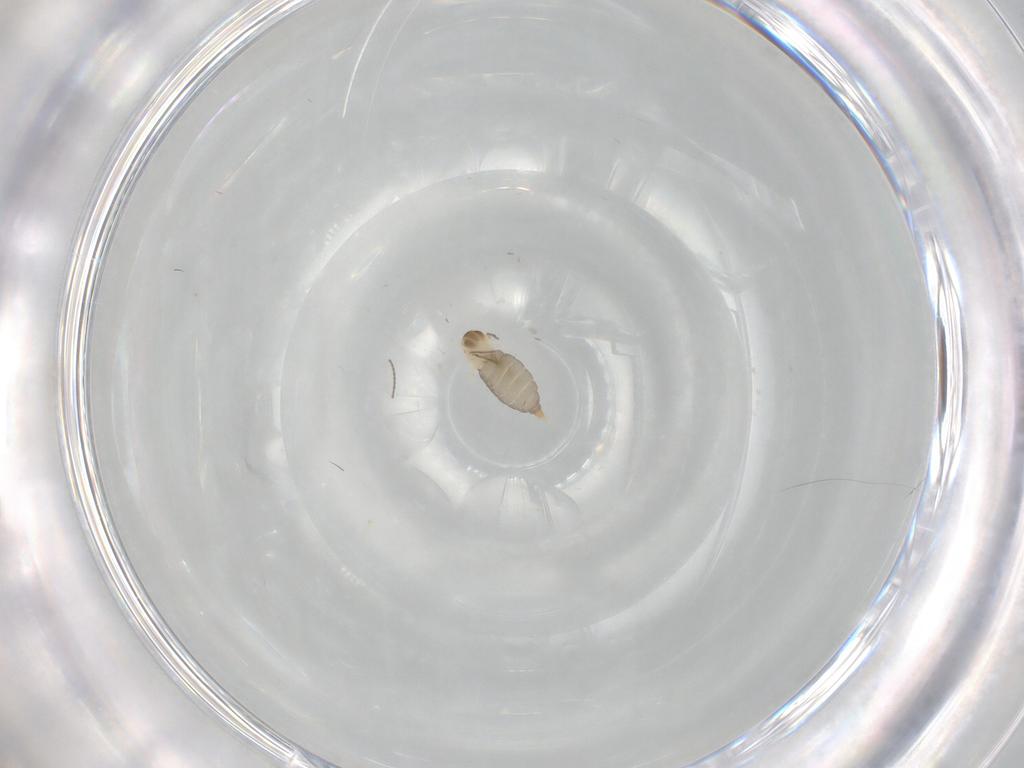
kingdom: Animalia
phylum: Arthropoda
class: Insecta
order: Diptera
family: Cecidomyiidae
